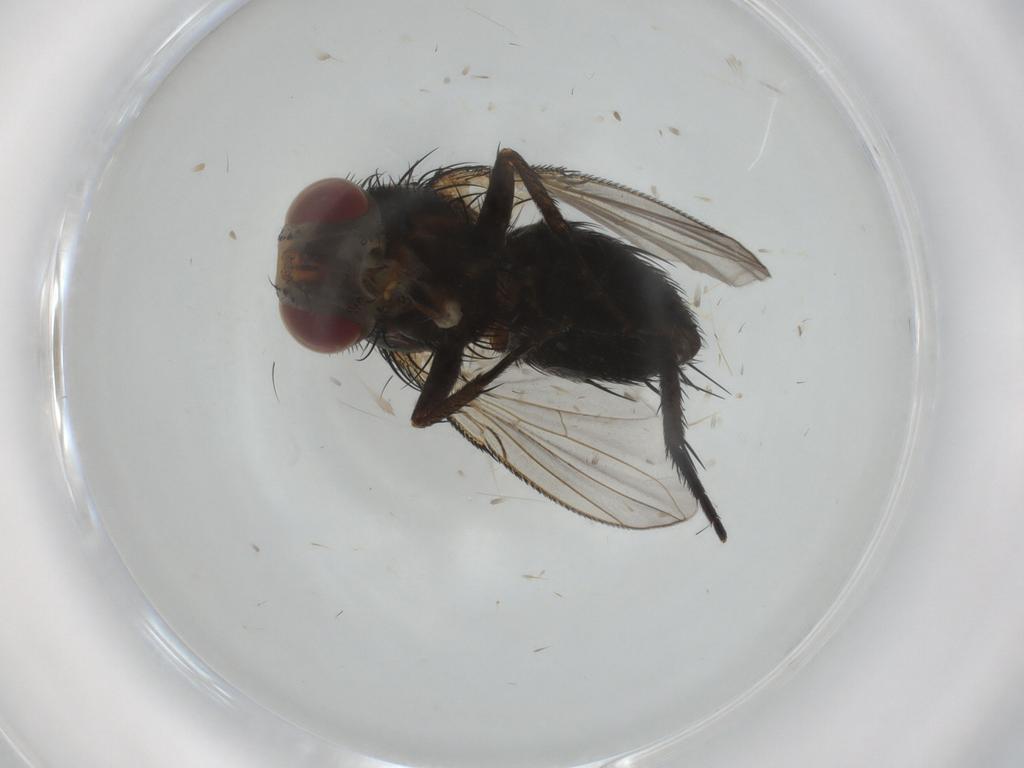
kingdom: Animalia
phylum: Arthropoda
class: Insecta
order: Diptera
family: Tachinidae
